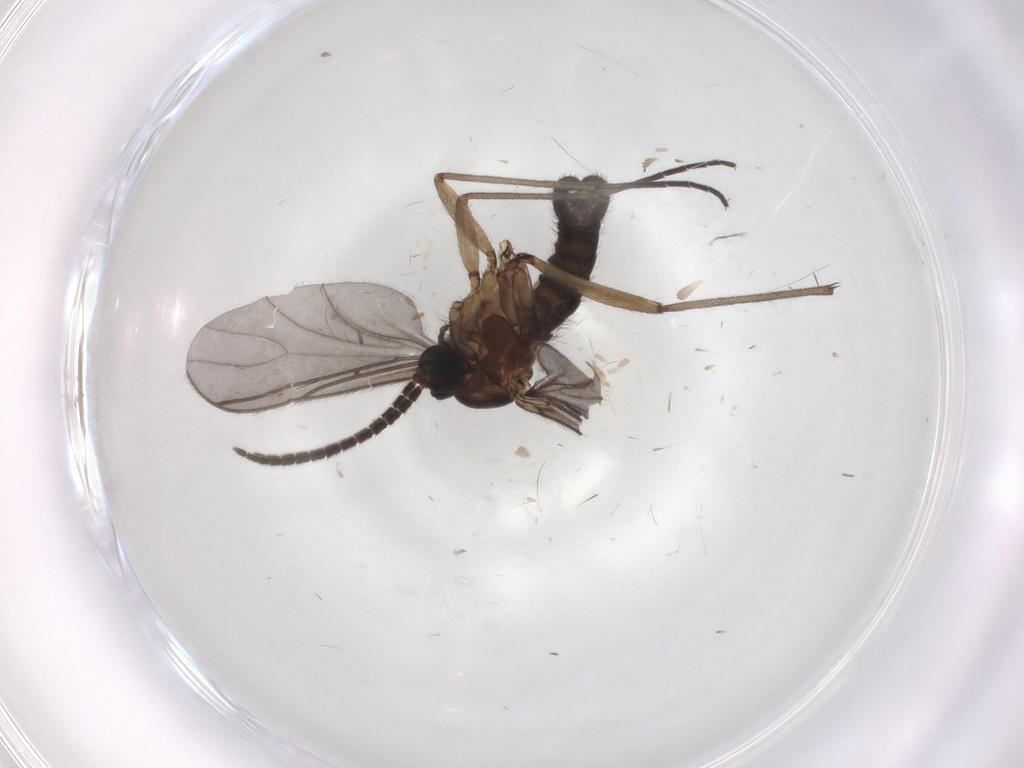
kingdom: Animalia
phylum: Arthropoda
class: Insecta
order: Diptera
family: Sciaridae
